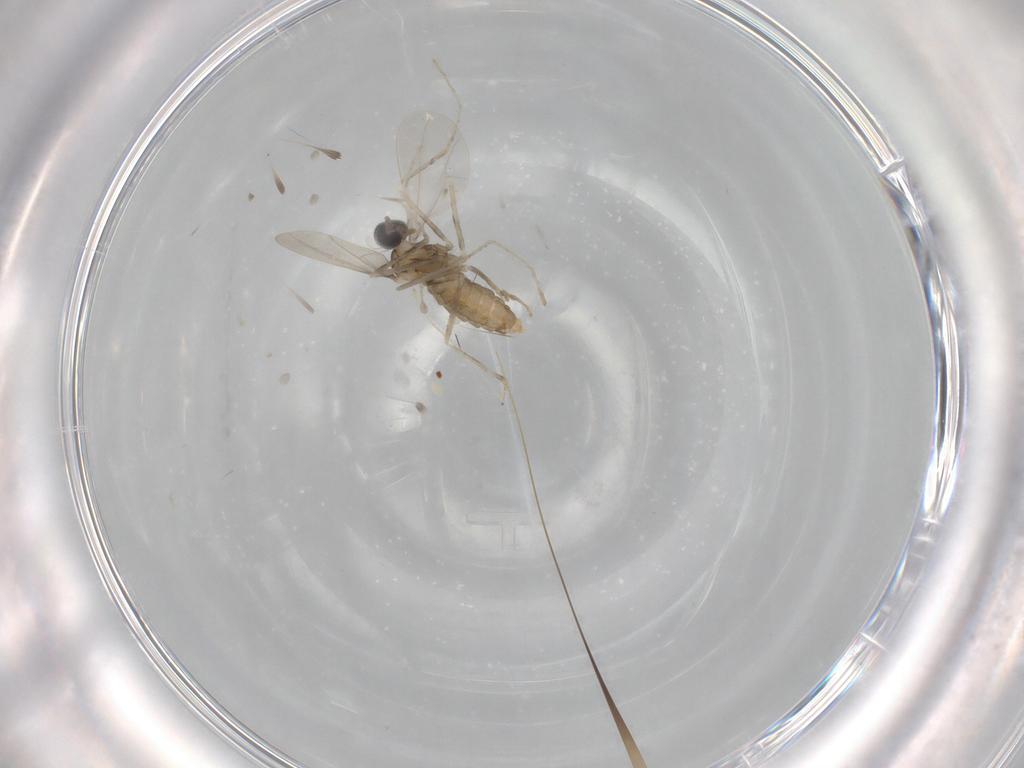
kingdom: Animalia
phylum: Arthropoda
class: Insecta
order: Diptera
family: Cecidomyiidae
